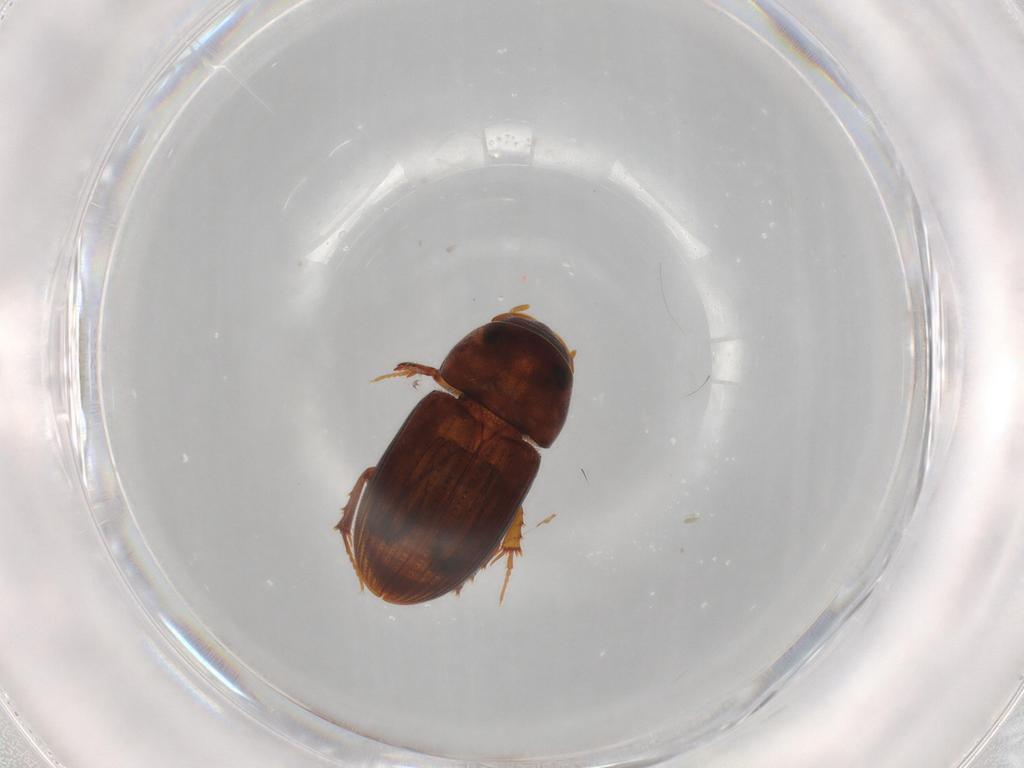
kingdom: Animalia
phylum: Arthropoda
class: Insecta
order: Coleoptera
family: Scarabaeidae
